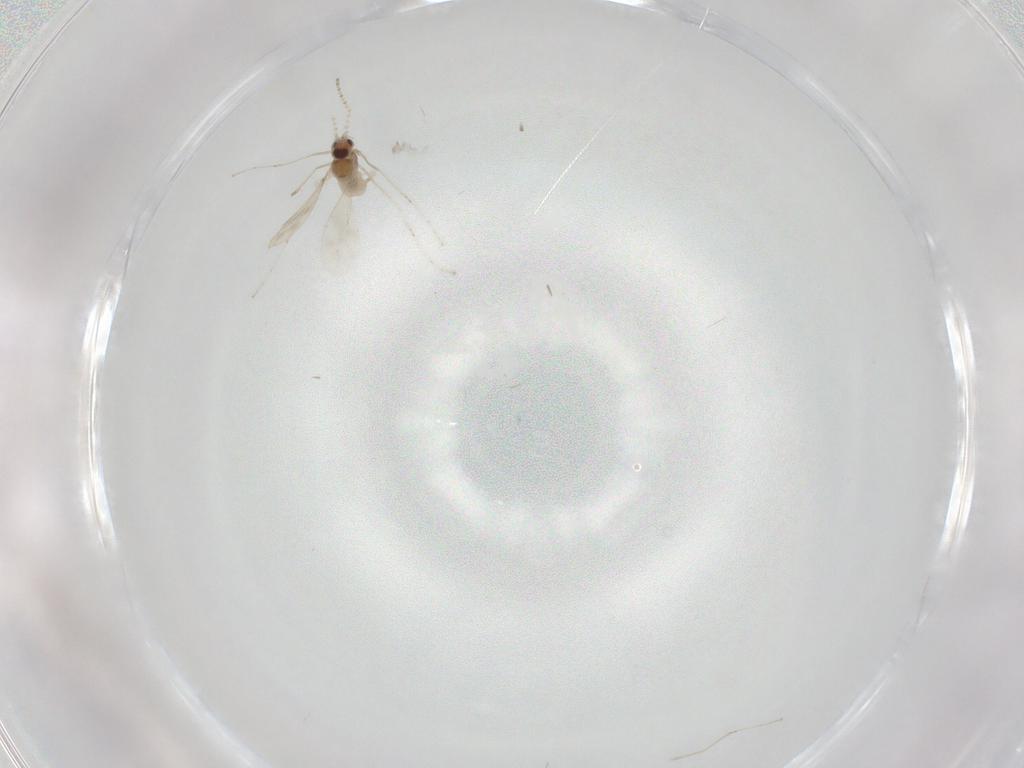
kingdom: Animalia
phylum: Arthropoda
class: Insecta
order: Diptera
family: Cecidomyiidae
